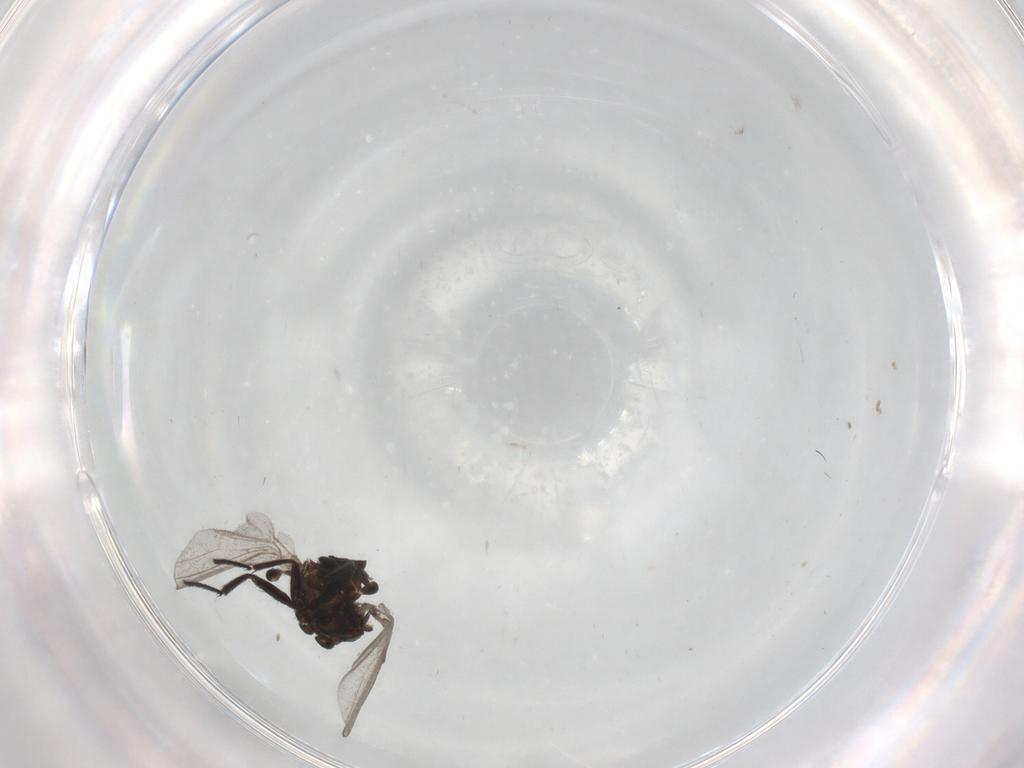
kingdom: Animalia
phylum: Arthropoda
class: Insecta
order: Diptera
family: Milichiidae
